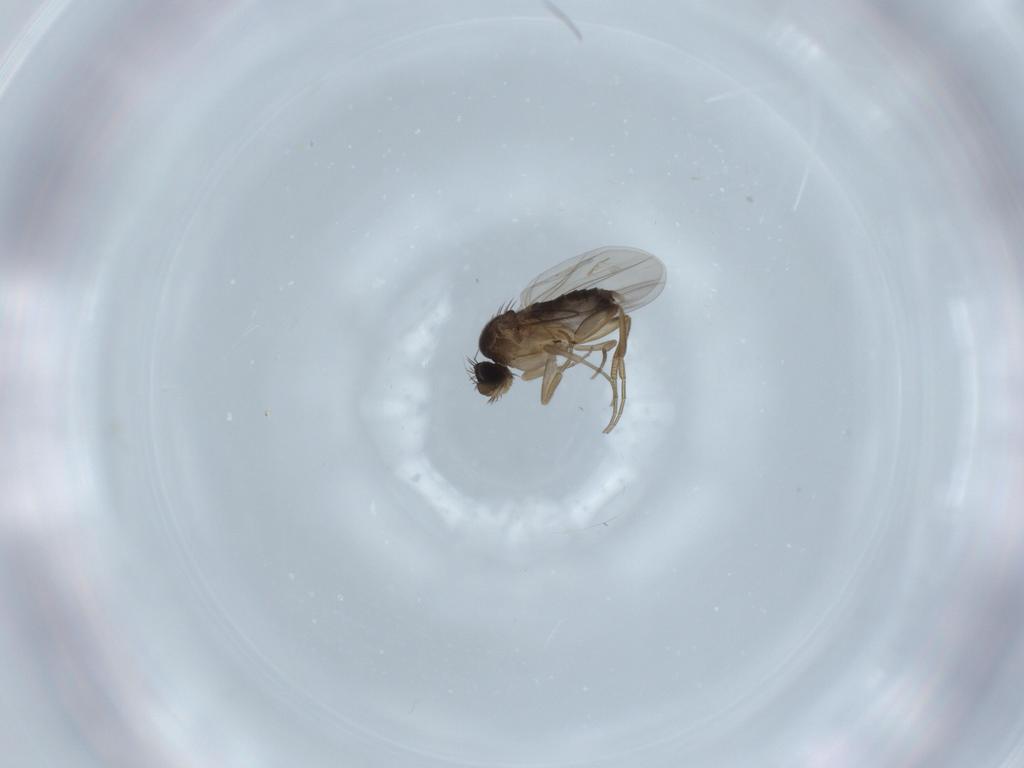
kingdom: Animalia
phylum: Arthropoda
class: Insecta
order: Diptera
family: Phoridae
